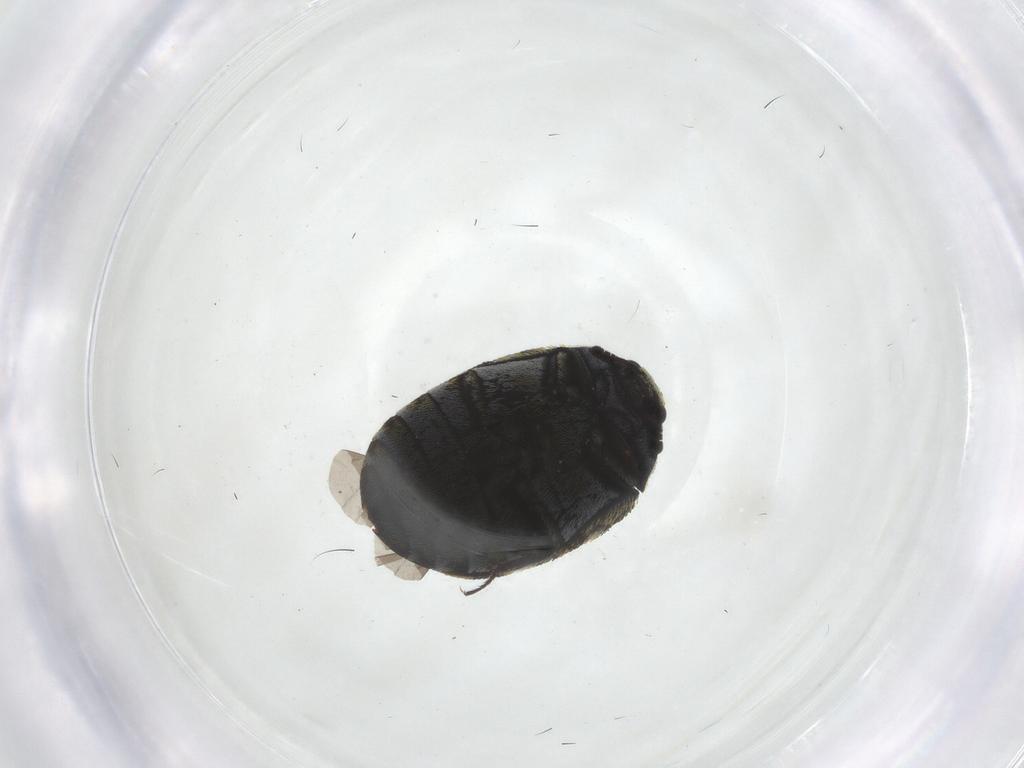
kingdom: Animalia
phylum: Arthropoda
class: Insecta
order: Coleoptera
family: Dermestidae
